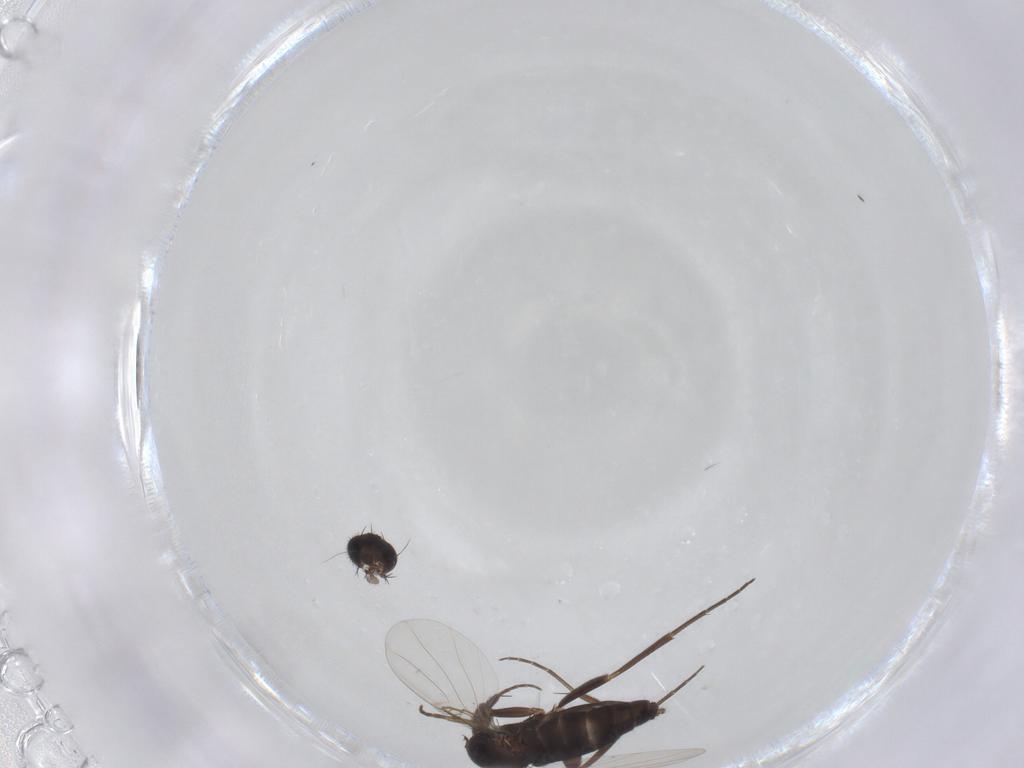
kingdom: Animalia
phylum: Arthropoda
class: Insecta
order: Diptera
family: Phoridae
